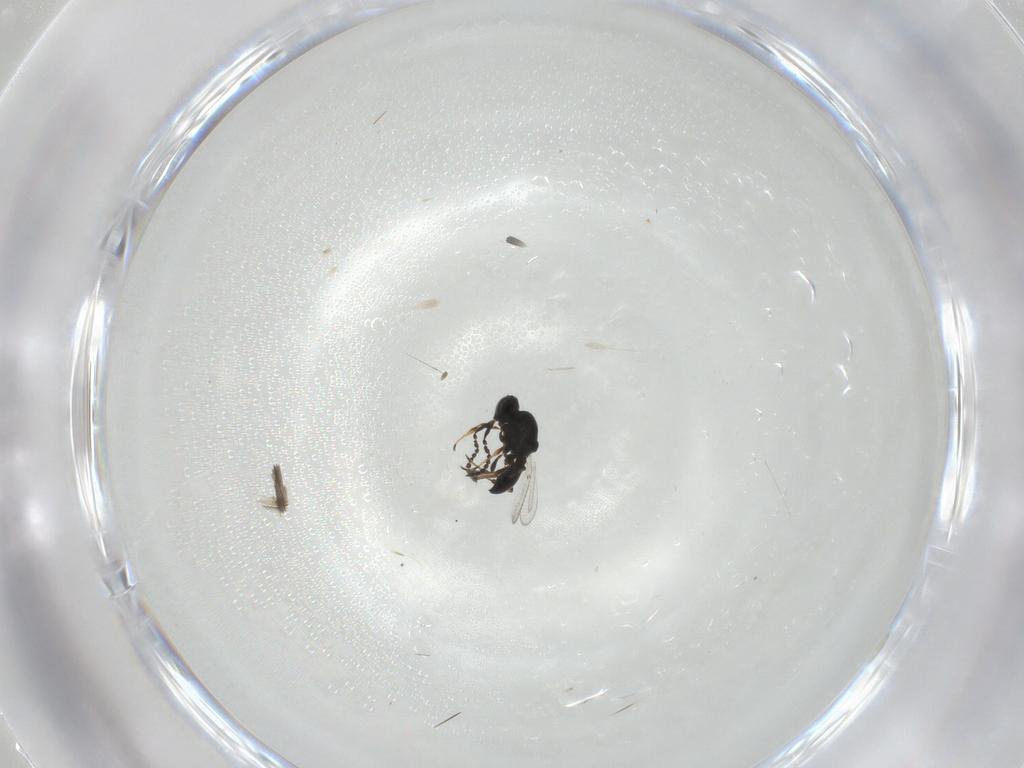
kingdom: Animalia
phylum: Arthropoda
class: Insecta
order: Hymenoptera
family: Platygastridae
